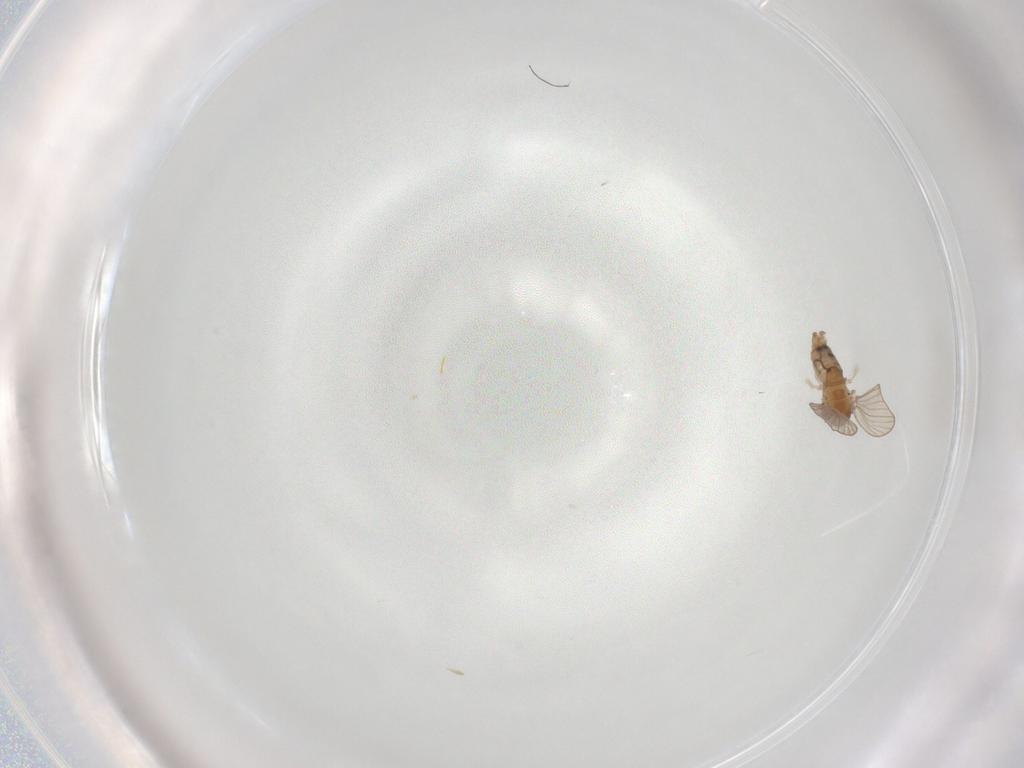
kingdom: Animalia
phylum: Arthropoda
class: Insecta
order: Diptera
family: Psychodidae
